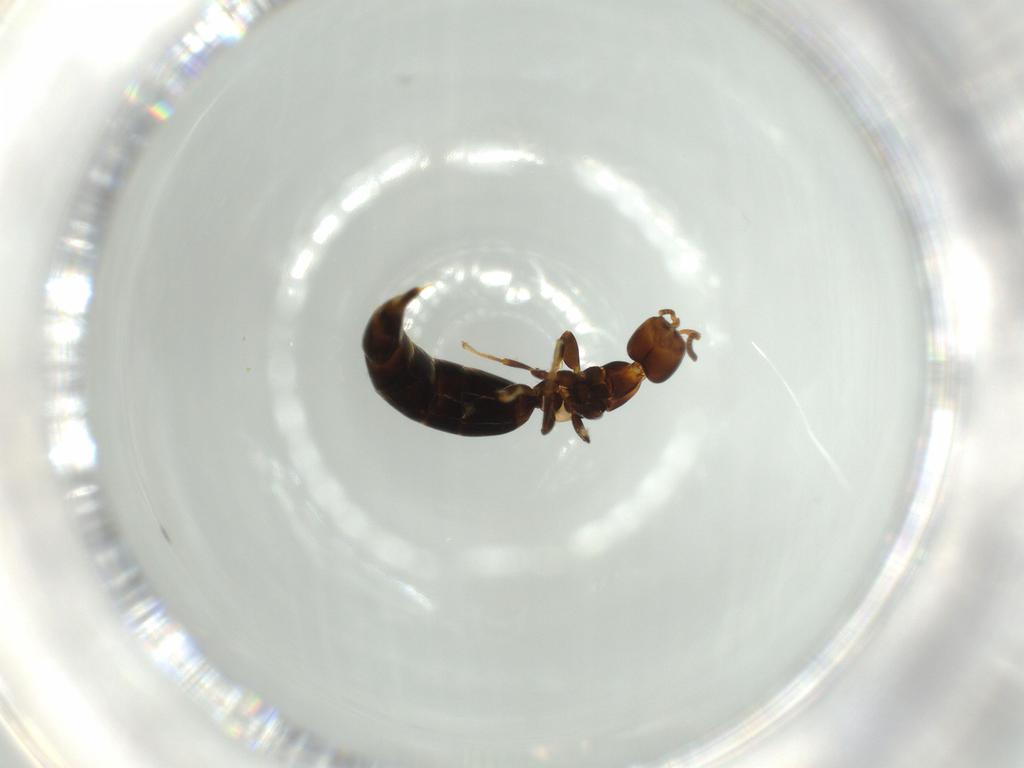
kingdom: Animalia
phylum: Arthropoda
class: Insecta
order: Hymenoptera
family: Bethylidae
